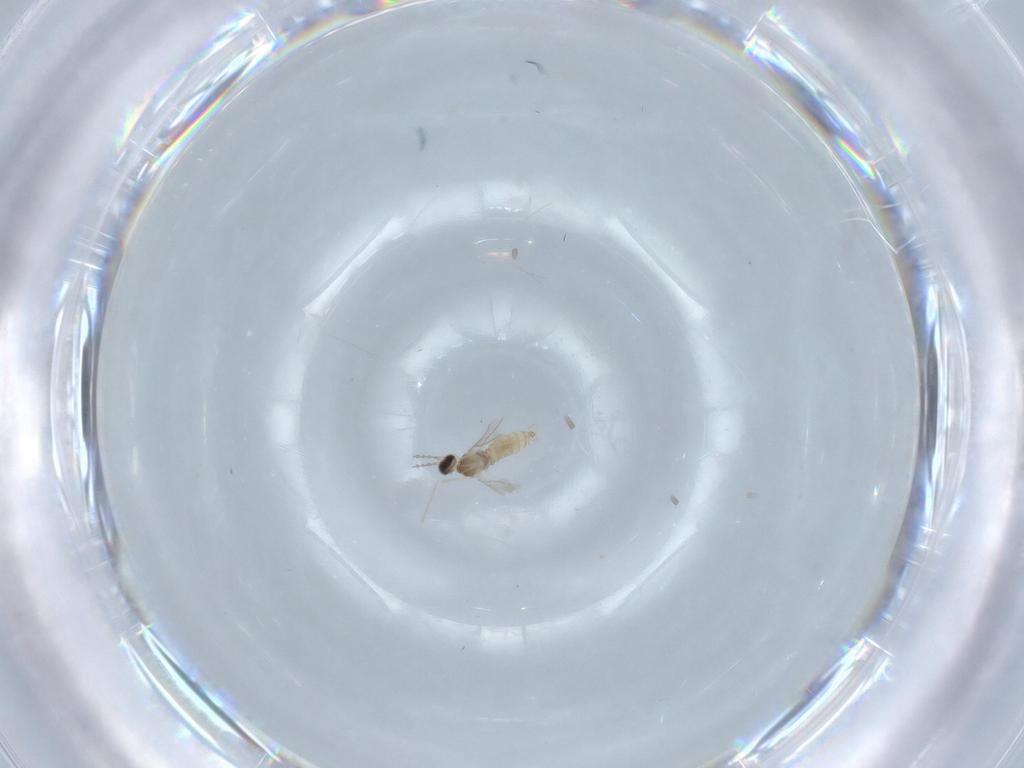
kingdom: Animalia
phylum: Arthropoda
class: Insecta
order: Diptera
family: Cecidomyiidae
